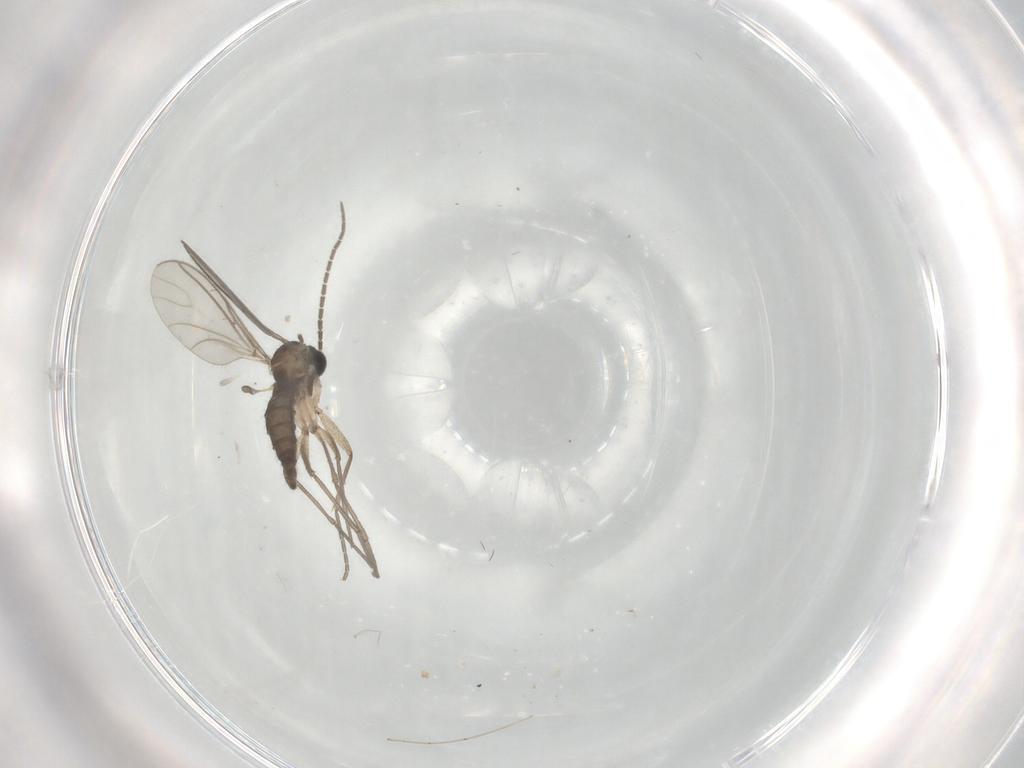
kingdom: Animalia
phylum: Arthropoda
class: Insecta
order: Diptera
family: Sciaridae
